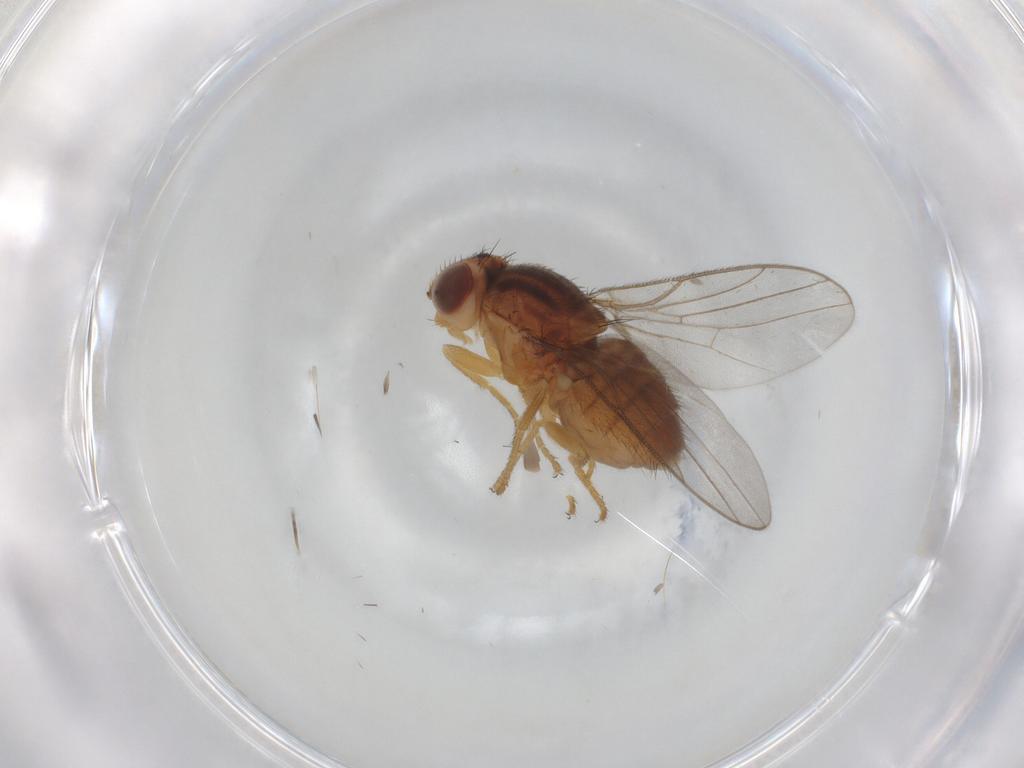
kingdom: Animalia
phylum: Arthropoda
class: Insecta
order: Diptera
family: Chloropidae
